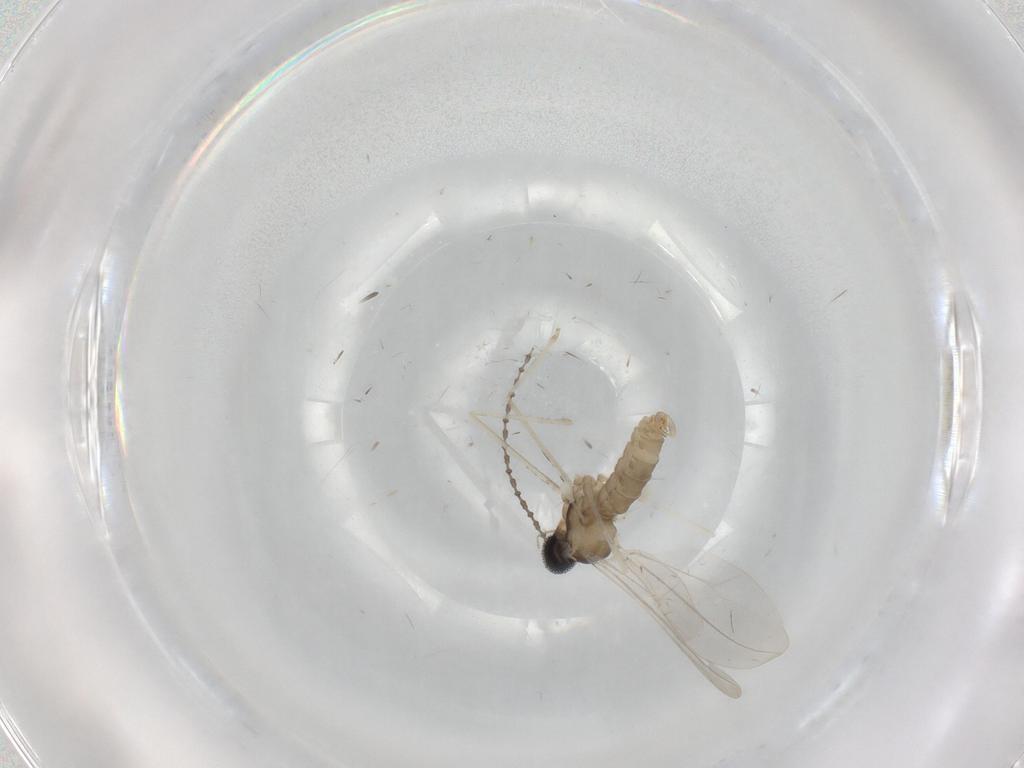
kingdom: Animalia
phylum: Arthropoda
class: Insecta
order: Diptera
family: Cecidomyiidae
